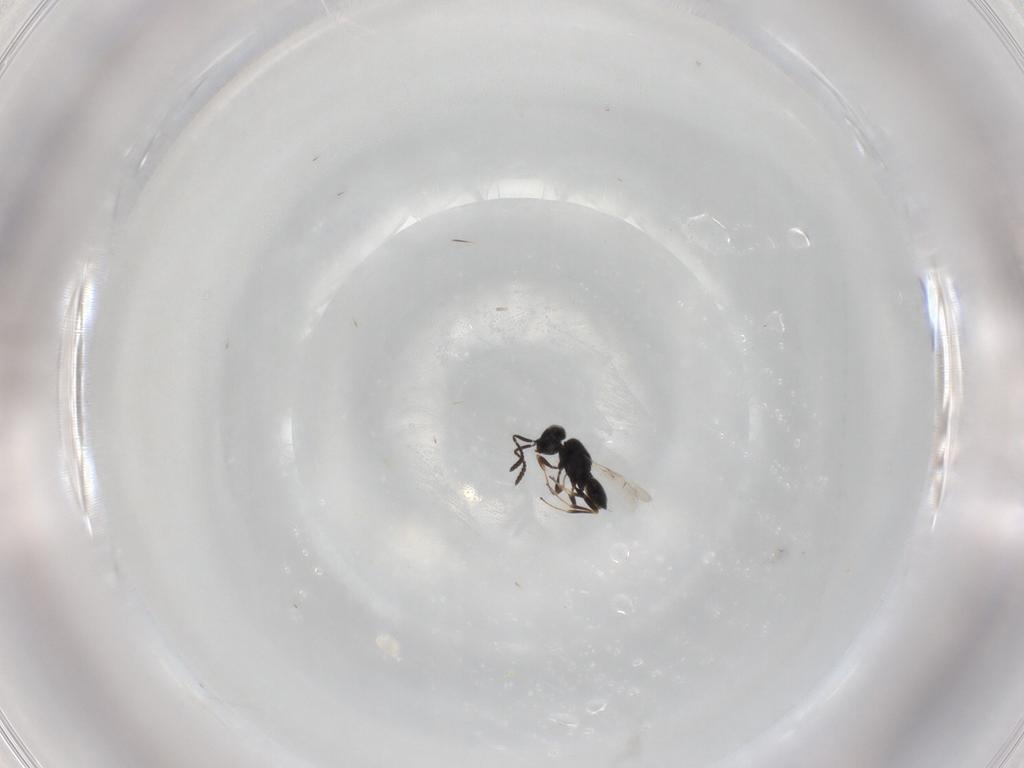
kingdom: Animalia
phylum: Arthropoda
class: Insecta
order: Hymenoptera
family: Scelionidae
